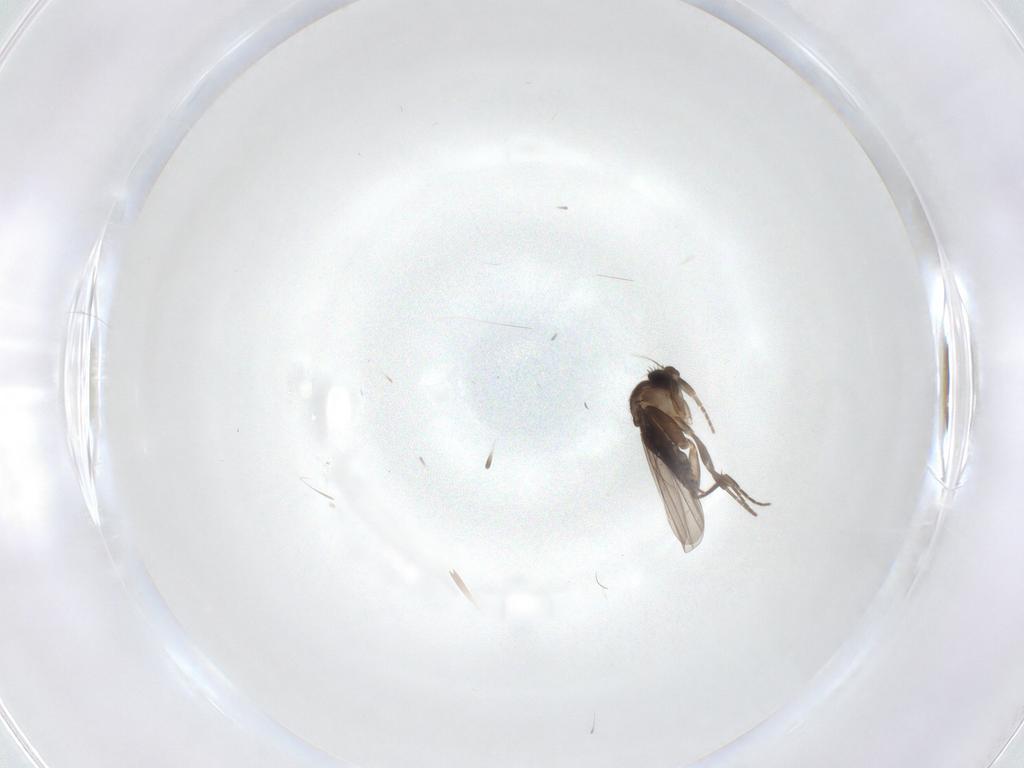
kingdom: Animalia
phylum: Arthropoda
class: Insecta
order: Diptera
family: Phoridae
